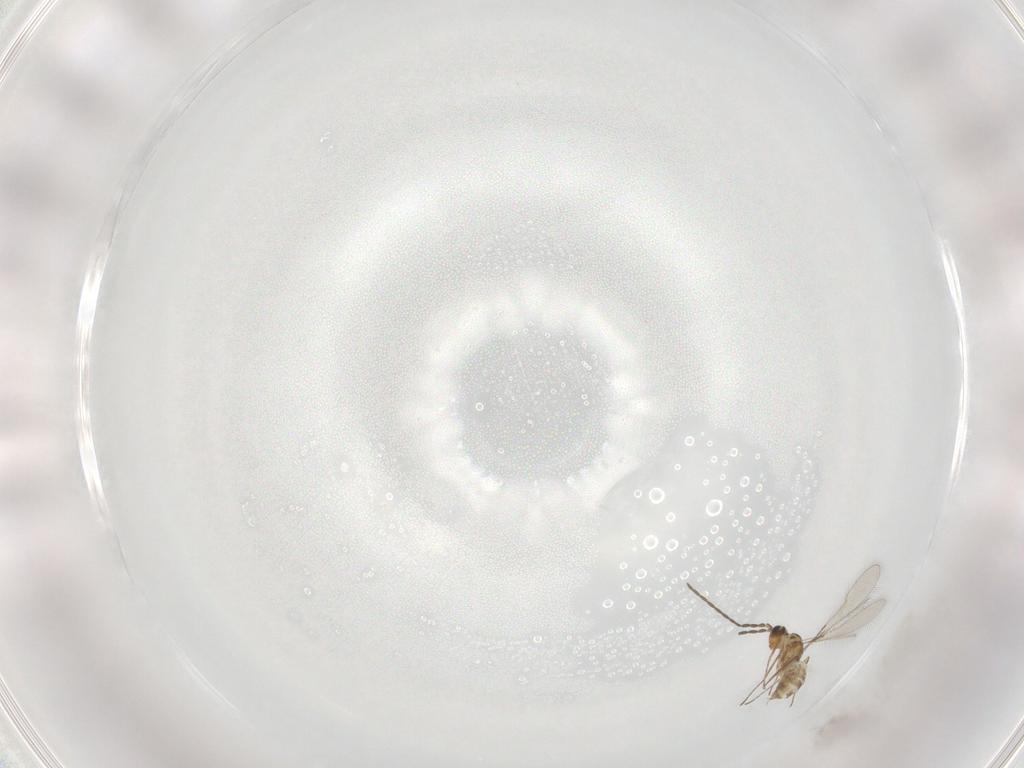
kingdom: Animalia
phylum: Arthropoda
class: Insecta
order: Hymenoptera
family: Mymaridae
